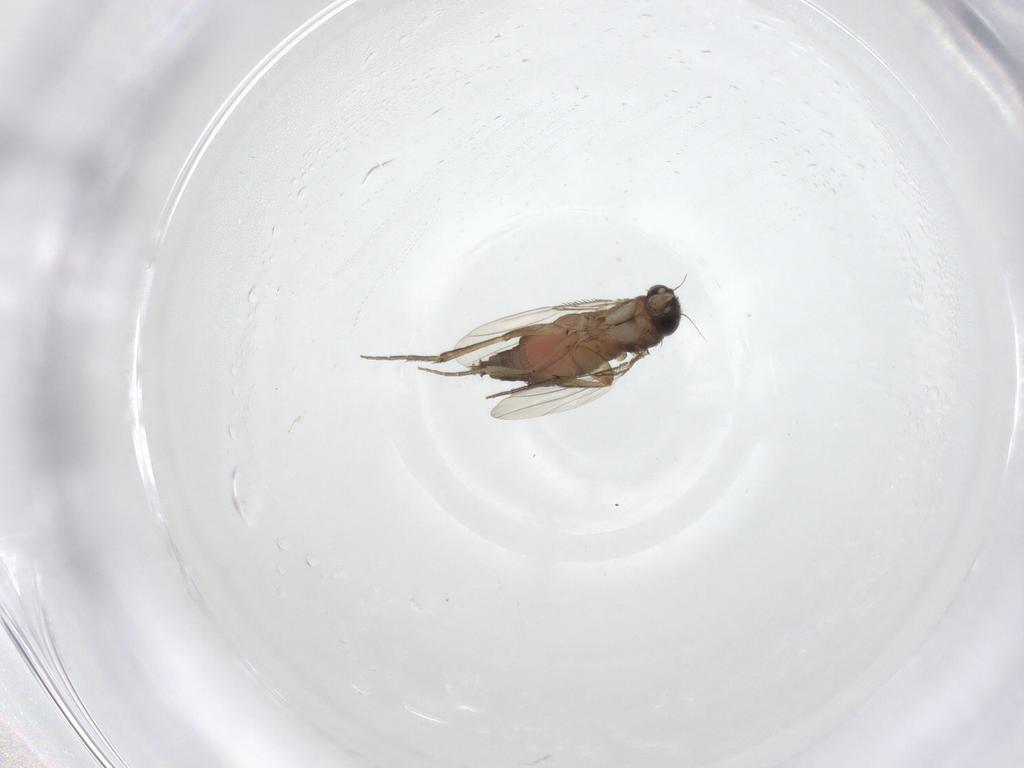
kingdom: Animalia
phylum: Arthropoda
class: Insecta
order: Diptera
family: Phoridae
